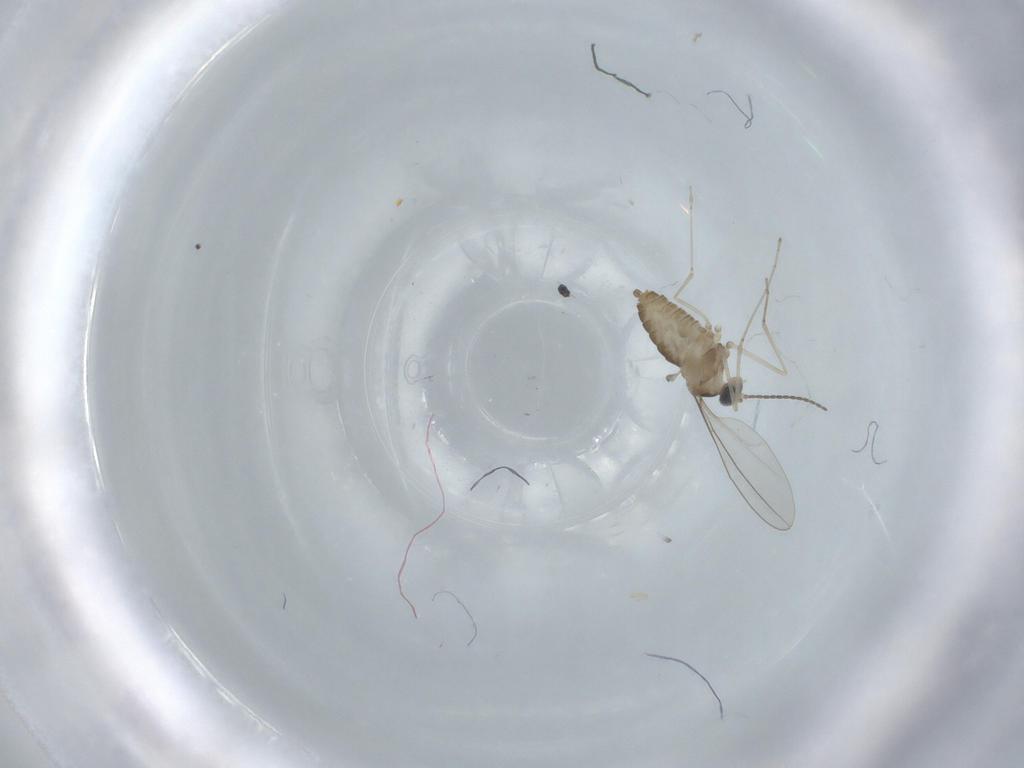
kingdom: Animalia
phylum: Arthropoda
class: Insecta
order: Diptera
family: Cecidomyiidae
